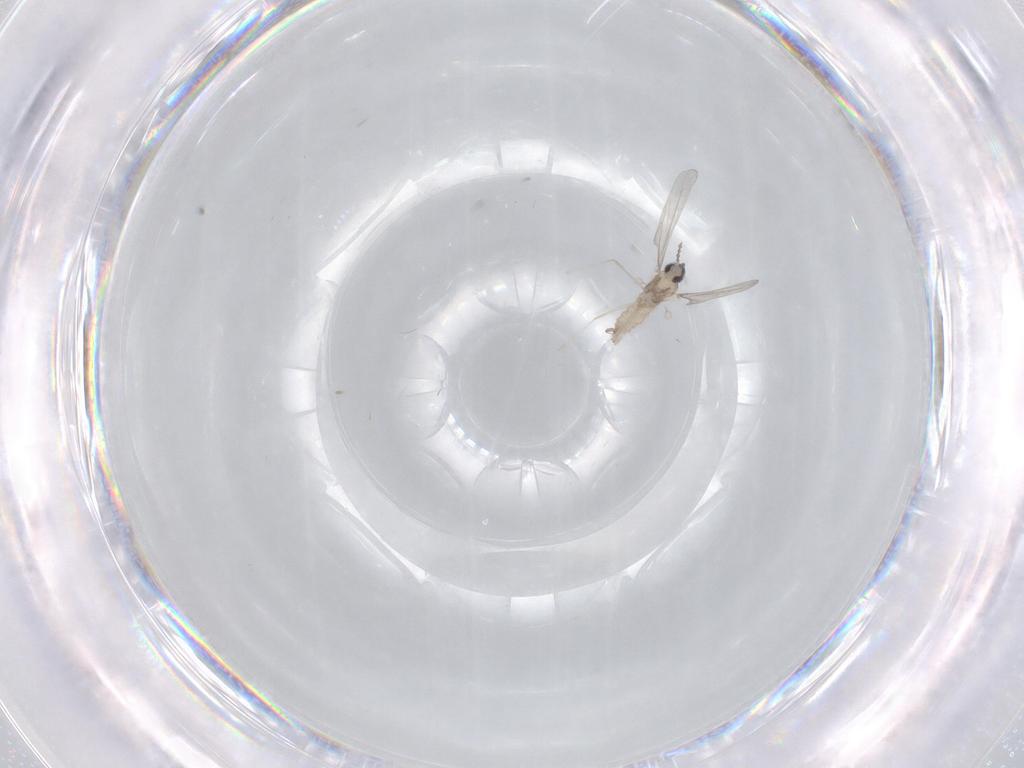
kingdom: Animalia
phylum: Arthropoda
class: Insecta
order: Diptera
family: Cecidomyiidae
